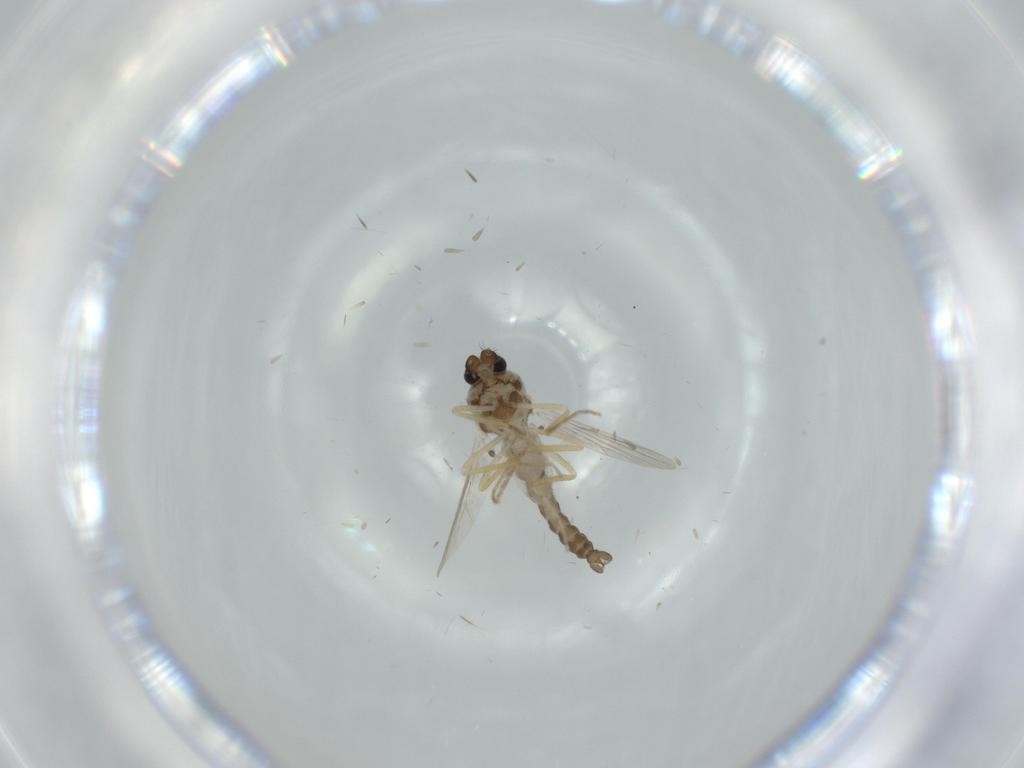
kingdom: Animalia
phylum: Arthropoda
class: Insecta
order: Diptera
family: Ceratopogonidae
